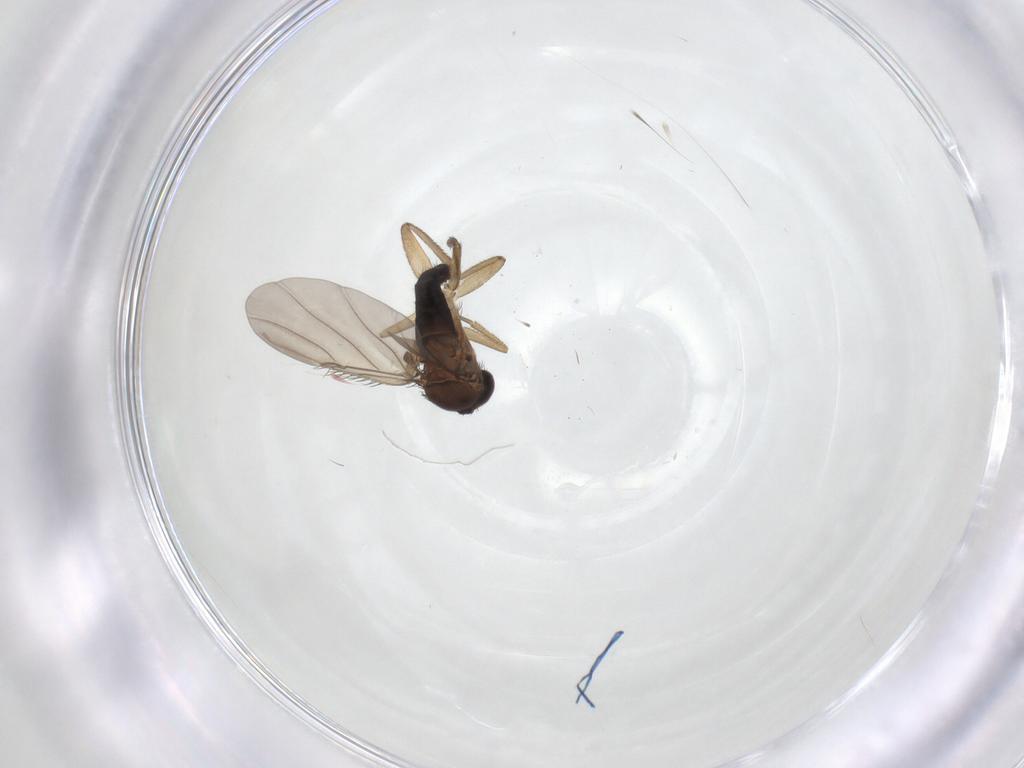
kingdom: Animalia
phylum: Arthropoda
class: Insecta
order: Diptera
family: Phoridae
